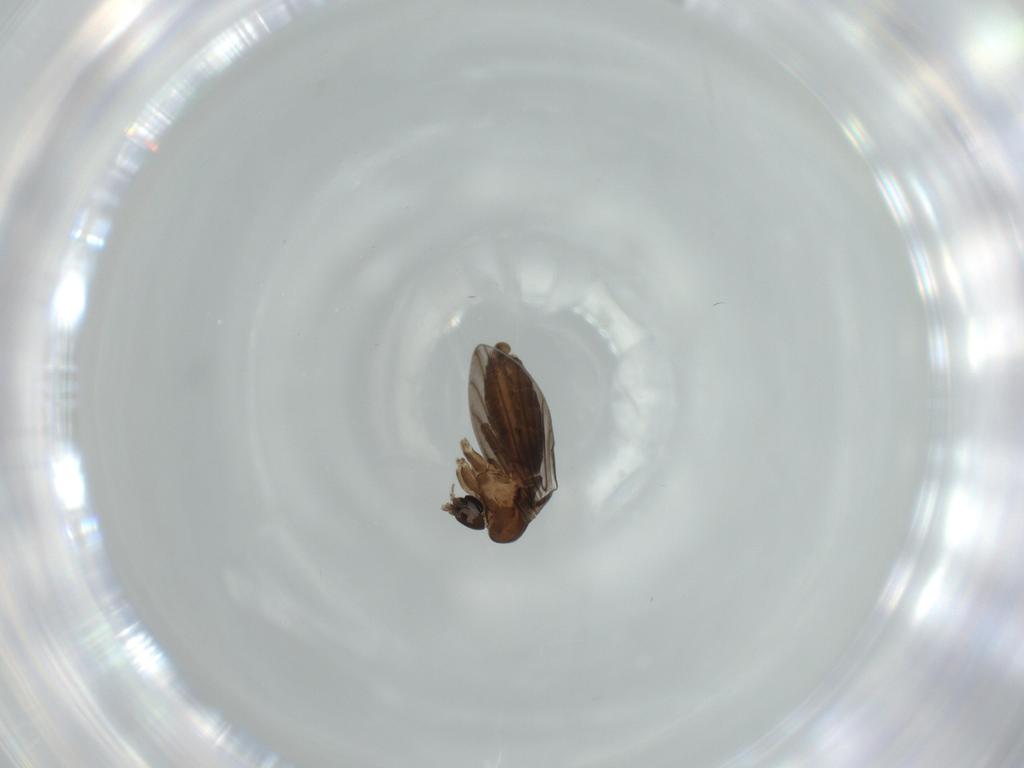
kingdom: Animalia
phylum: Arthropoda
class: Insecta
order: Diptera
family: Psychodidae
